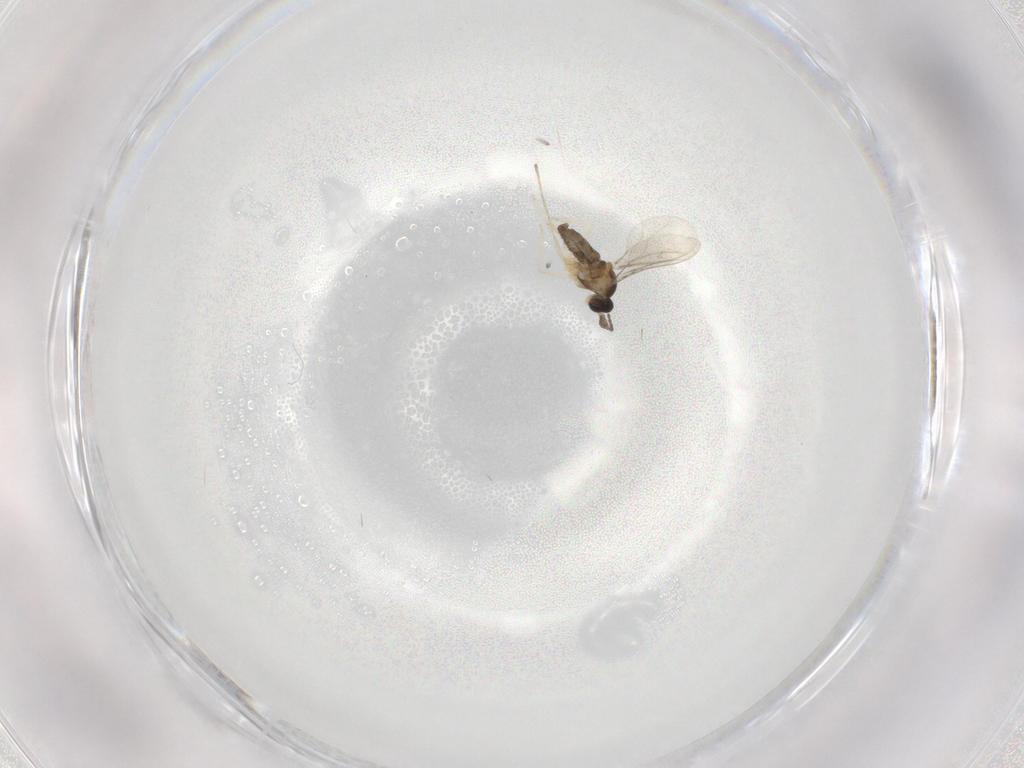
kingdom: Animalia
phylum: Arthropoda
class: Insecta
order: Diptera
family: Cecidomyiidae
